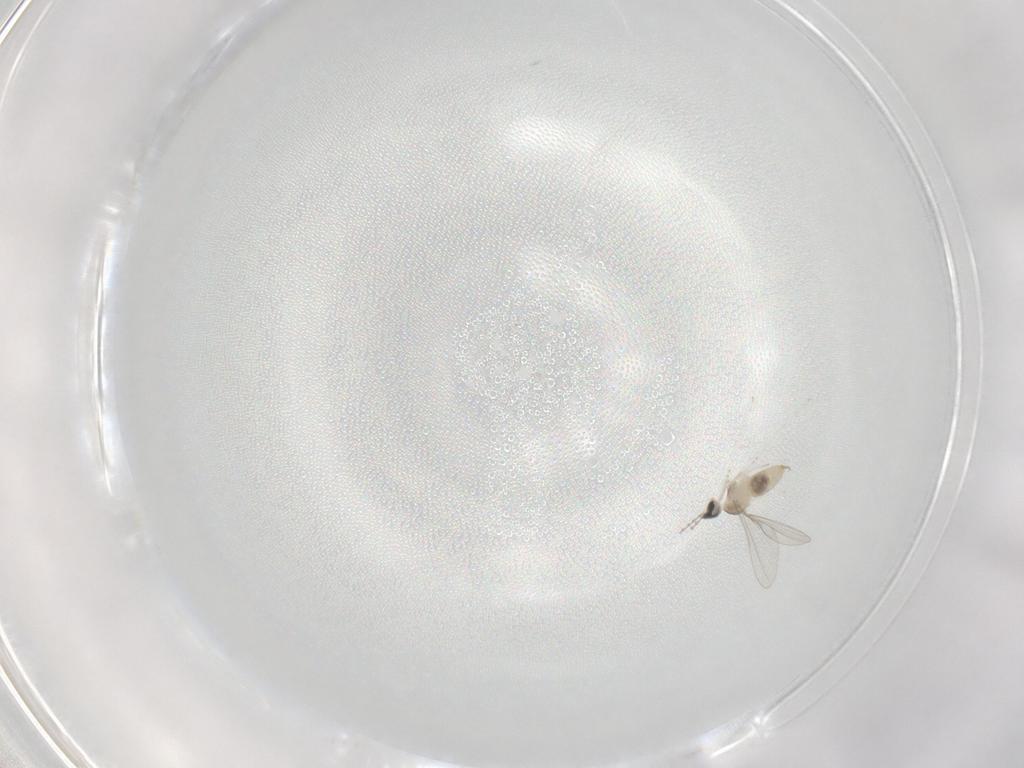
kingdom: Animalia
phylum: Arthropoda
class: Insecta
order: Diptera
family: Cecidomyiidae
